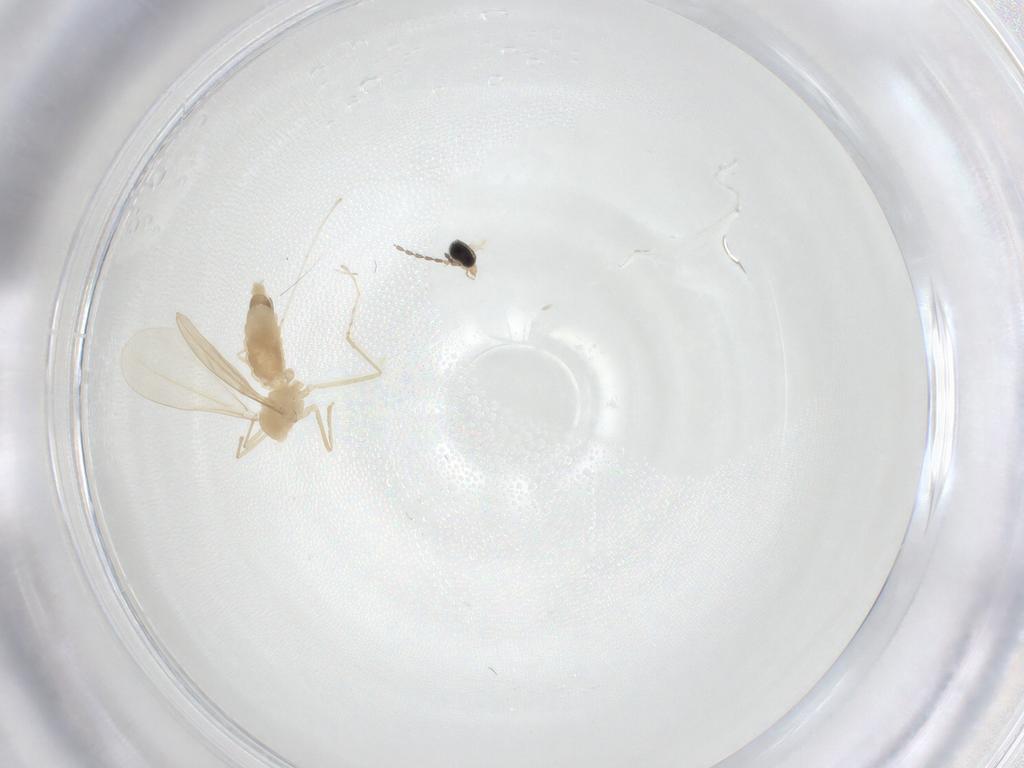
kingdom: Animalia
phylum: Arthropoda
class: Insecta
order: Diptera
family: Cecidomyiidae
